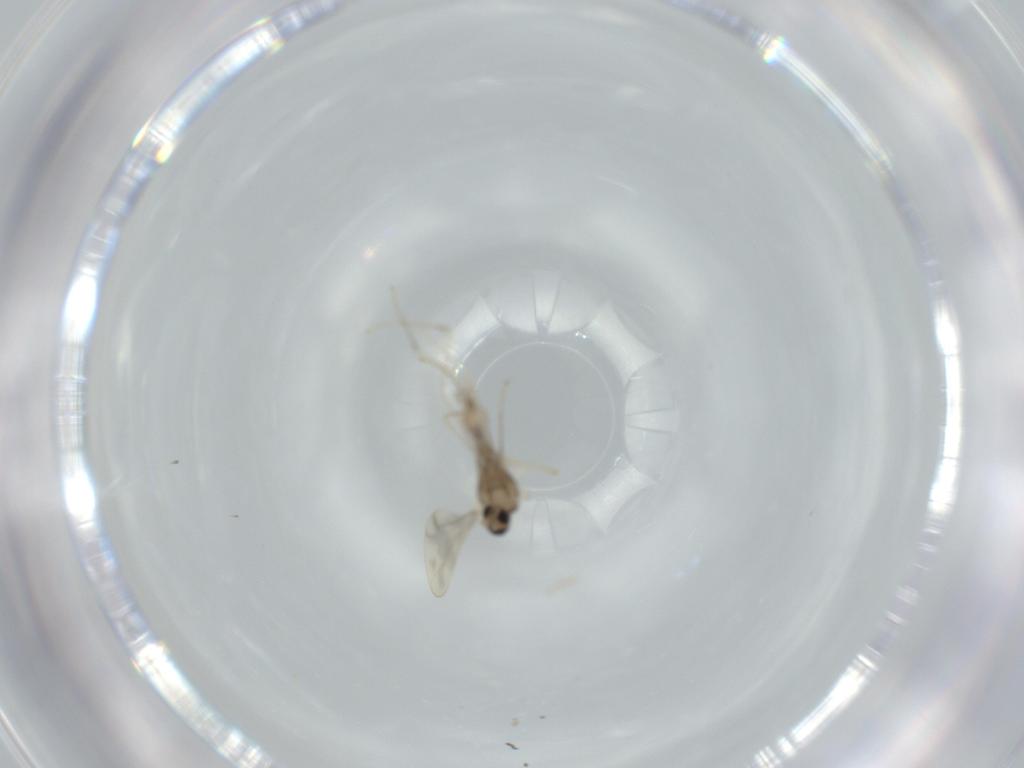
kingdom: Animalia
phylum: Arthropoda
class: Insecta
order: Diptera
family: Cecidomyiidae
